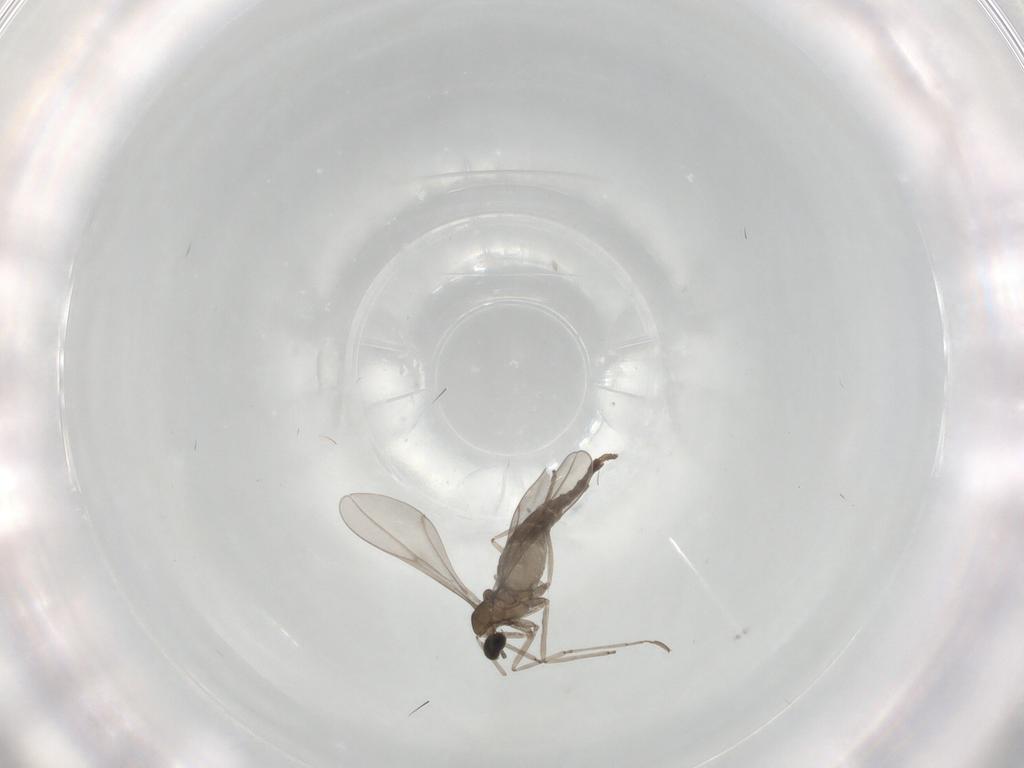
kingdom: Animalia
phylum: Arthropoda
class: Insecta
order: Diptera
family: Cecidomyiidae
